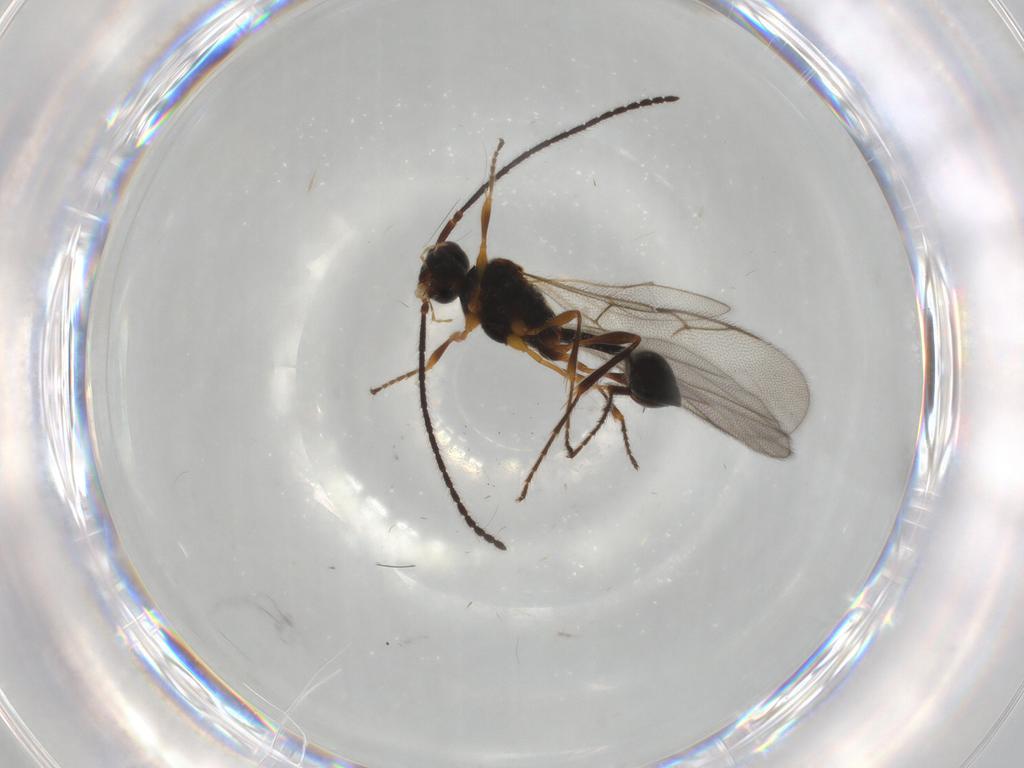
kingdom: Animalia
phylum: Arthropoda
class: Insecta
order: Hymenoptera
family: Diapriidae
